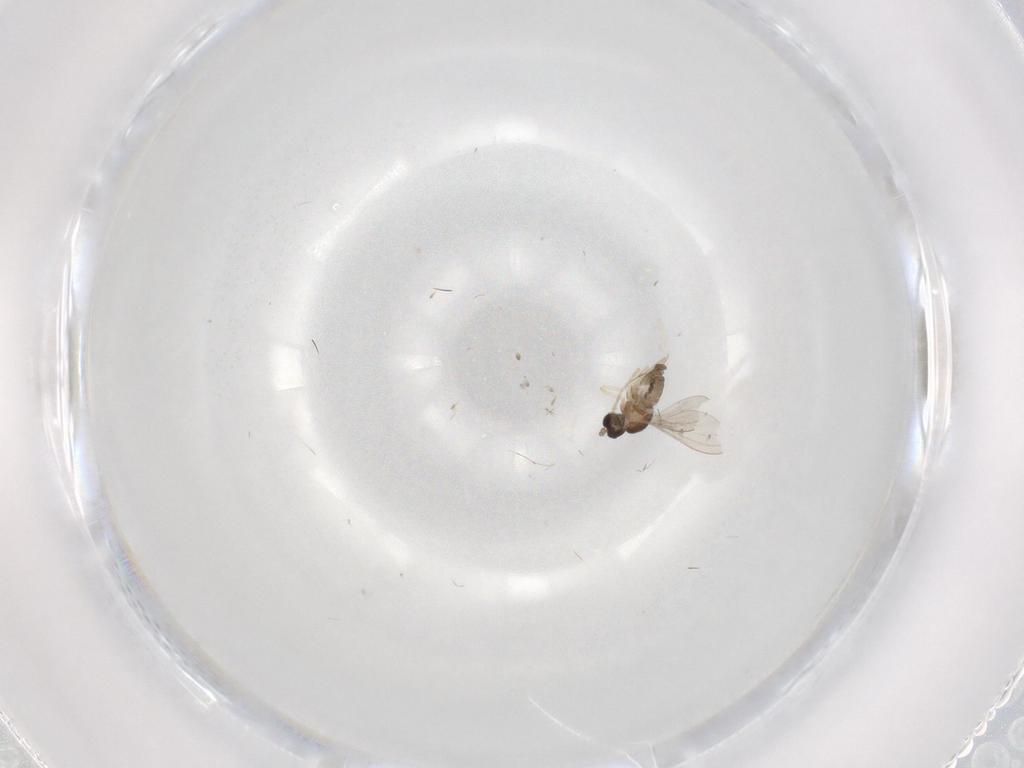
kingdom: Animalia
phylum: Arthropoda
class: Insecta
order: Diptera
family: Cecidomyiidae
